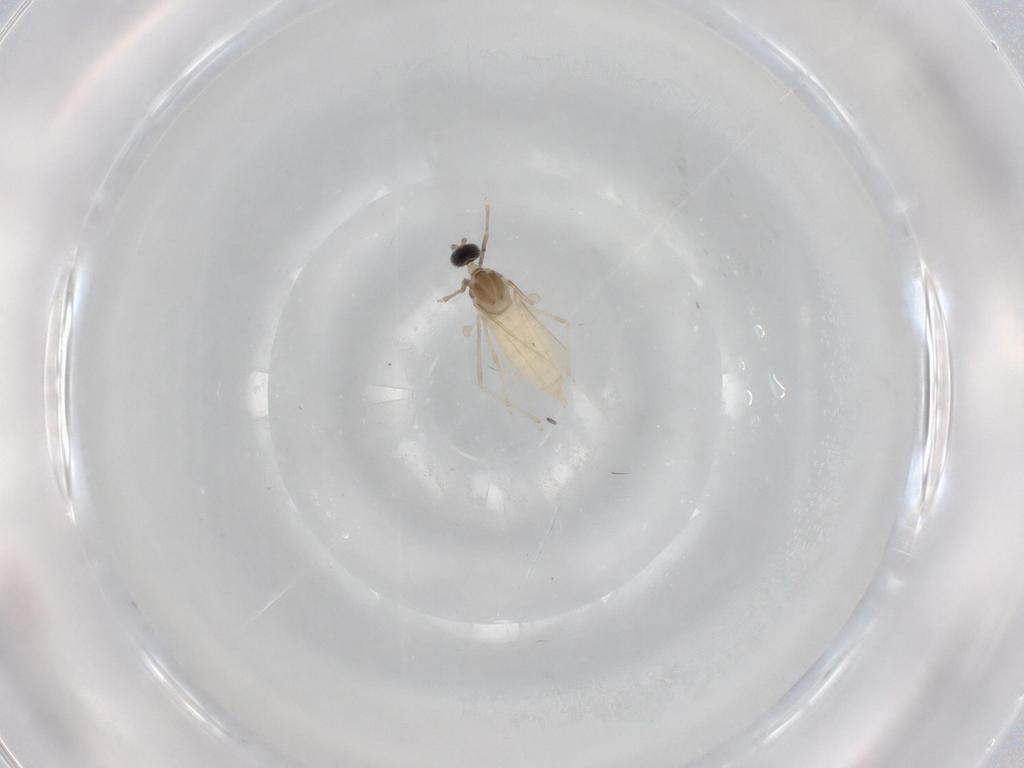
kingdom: Animalia
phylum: Arthropoda
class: Insecta
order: Diptera
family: Cecidomyiidae
